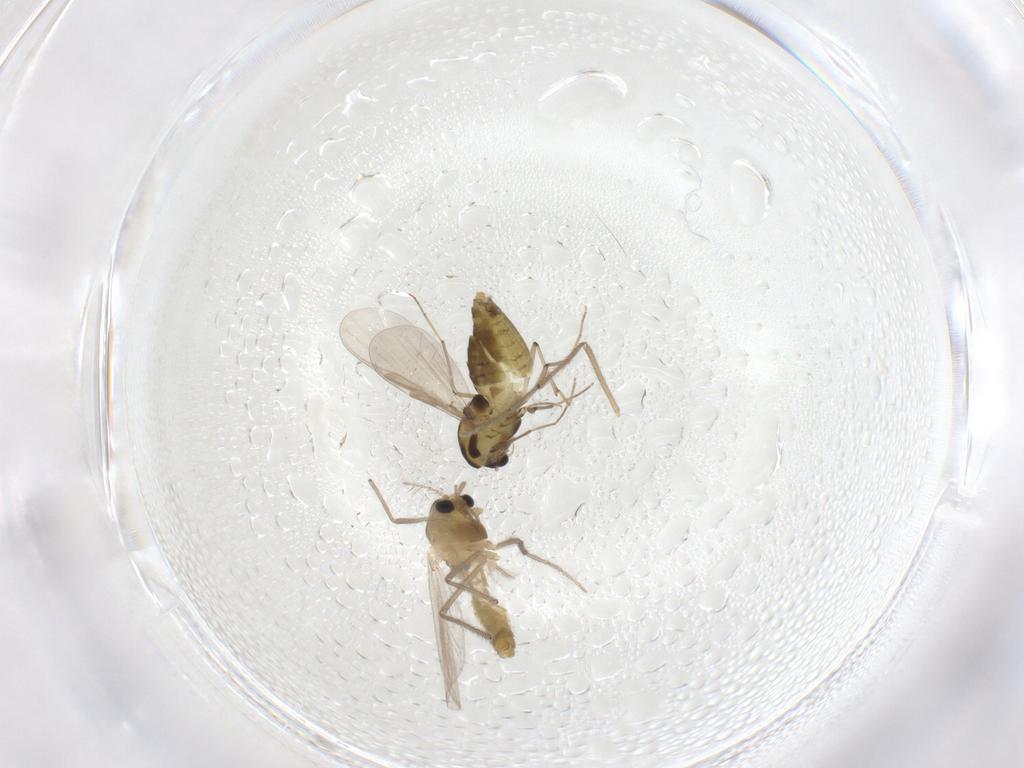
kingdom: Animalia
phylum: Arthropoda
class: Insecta
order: Diptera
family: Chironomidae
